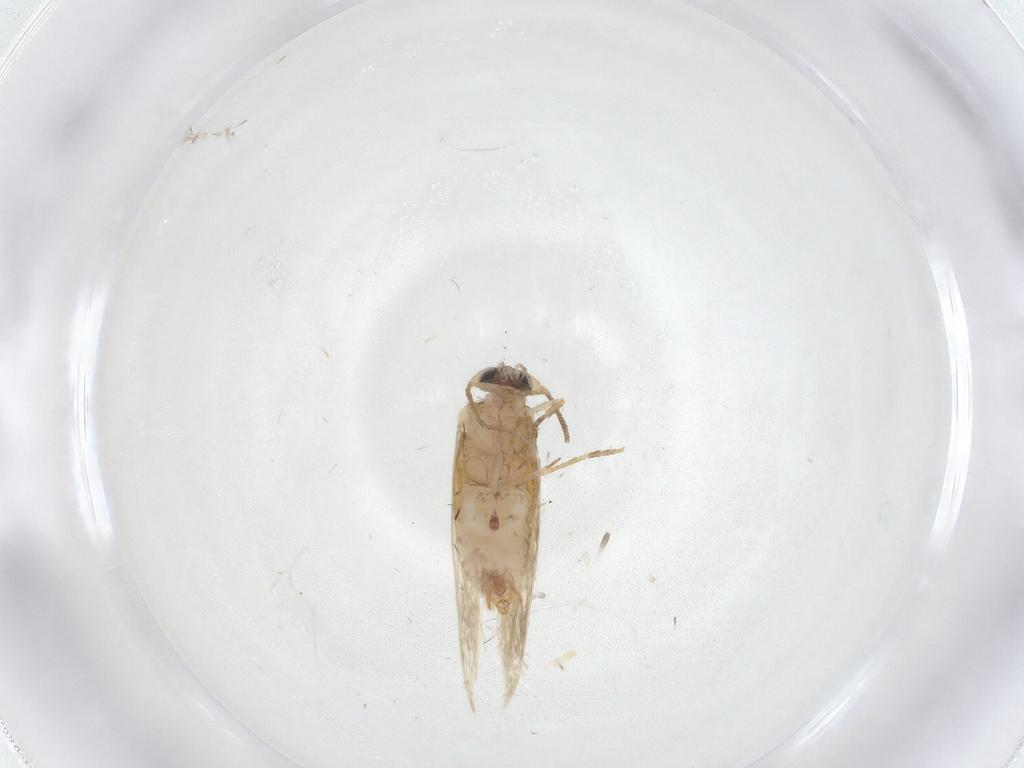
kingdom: Animalia
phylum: Arthropoda
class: Insecta
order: Lepidoptera
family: Nepticulidae
